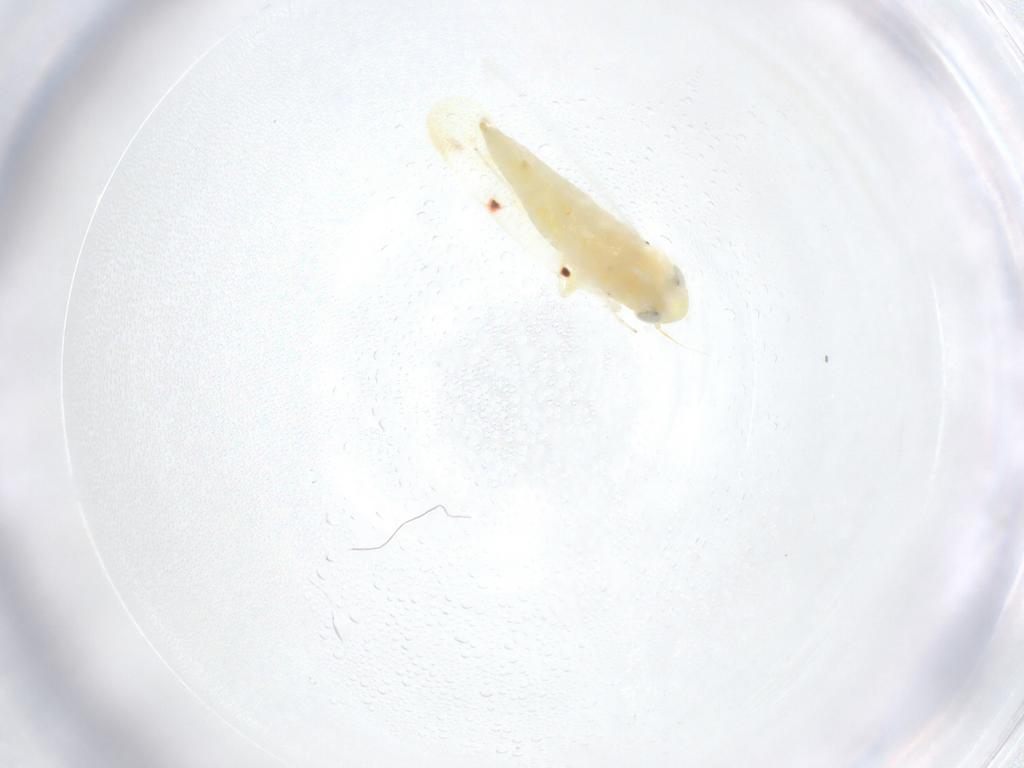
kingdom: Animalia
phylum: Arthropoda
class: Insecta
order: Hemiptera
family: Cicadellidae
